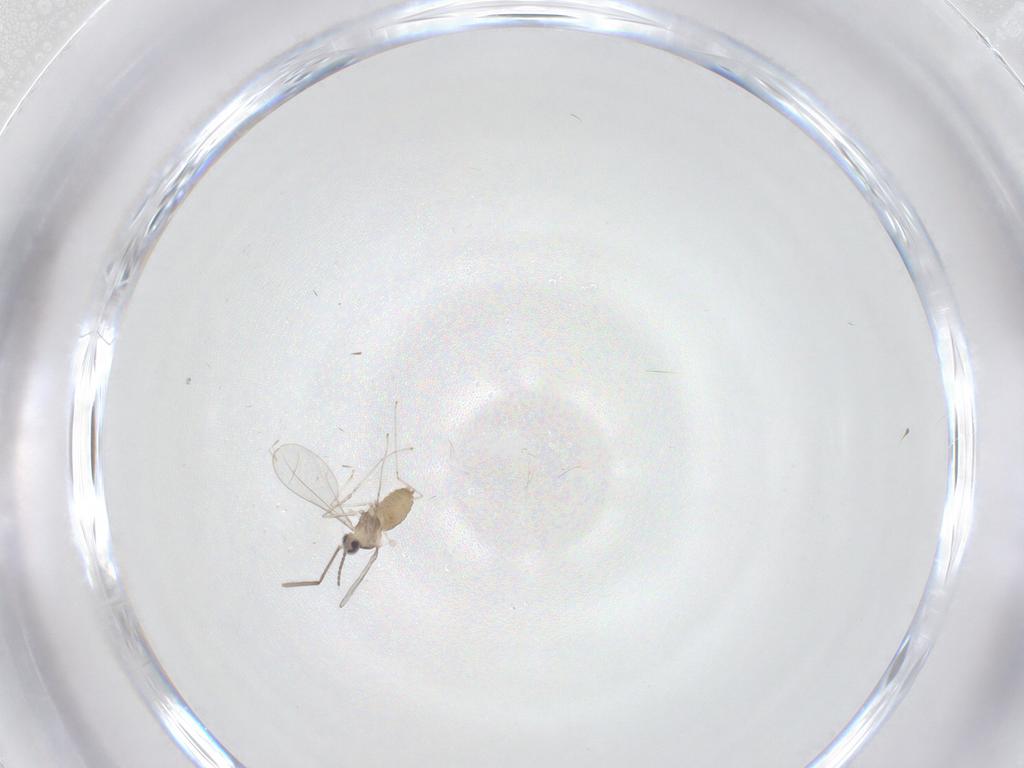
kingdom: Animalia
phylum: Arthropoda
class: Insecta
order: Diptera
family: Cecidomyiidae
